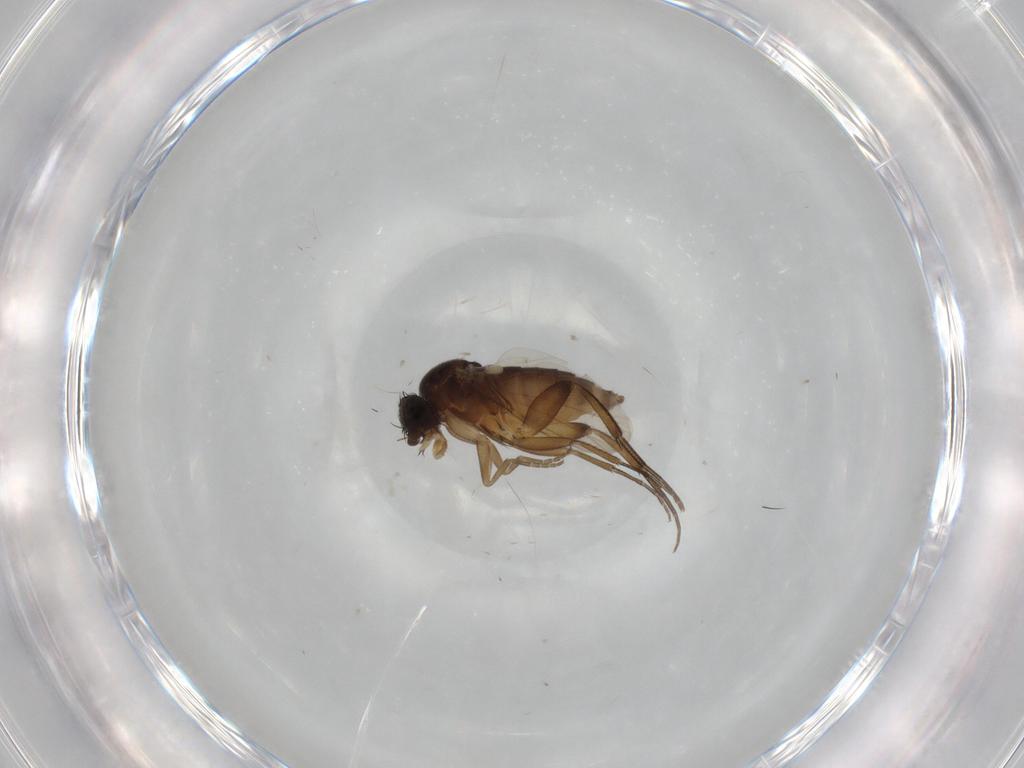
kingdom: Animalia
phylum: Arthropoda
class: Insecta
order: Diptera
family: Cecidomyiidae
